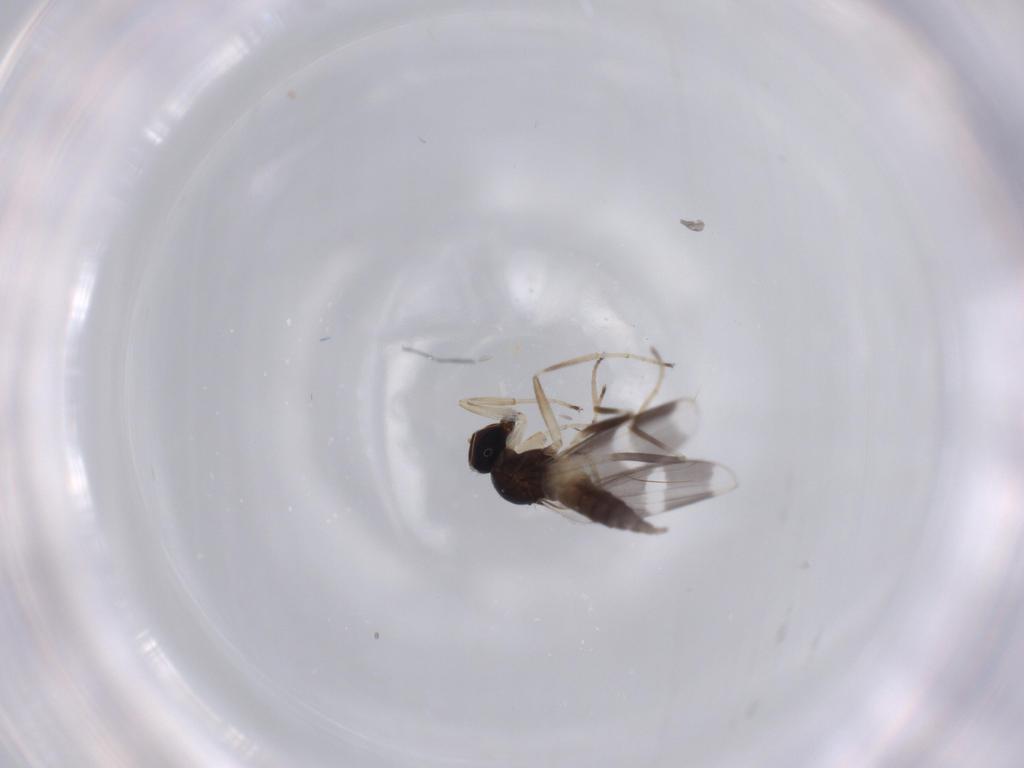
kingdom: Animalia
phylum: Arthropoda
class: Insecta
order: Diptera
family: Hybotidae
